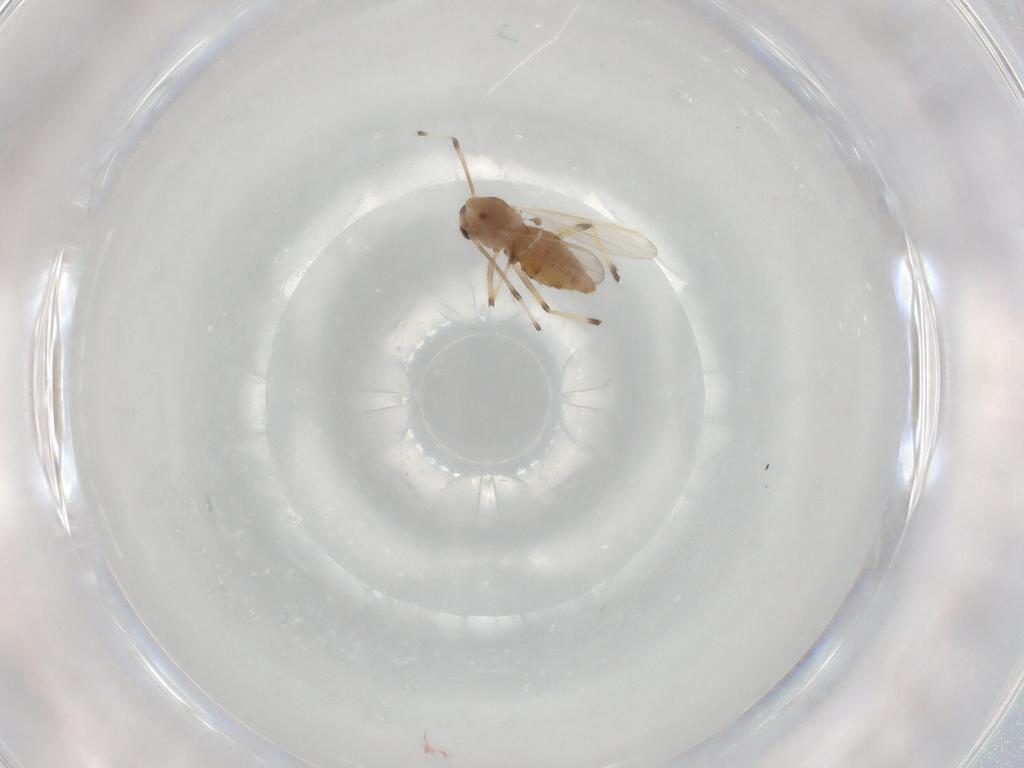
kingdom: Animalia
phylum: Arthropoda
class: Insecta
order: Diptera
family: Chironomidae
